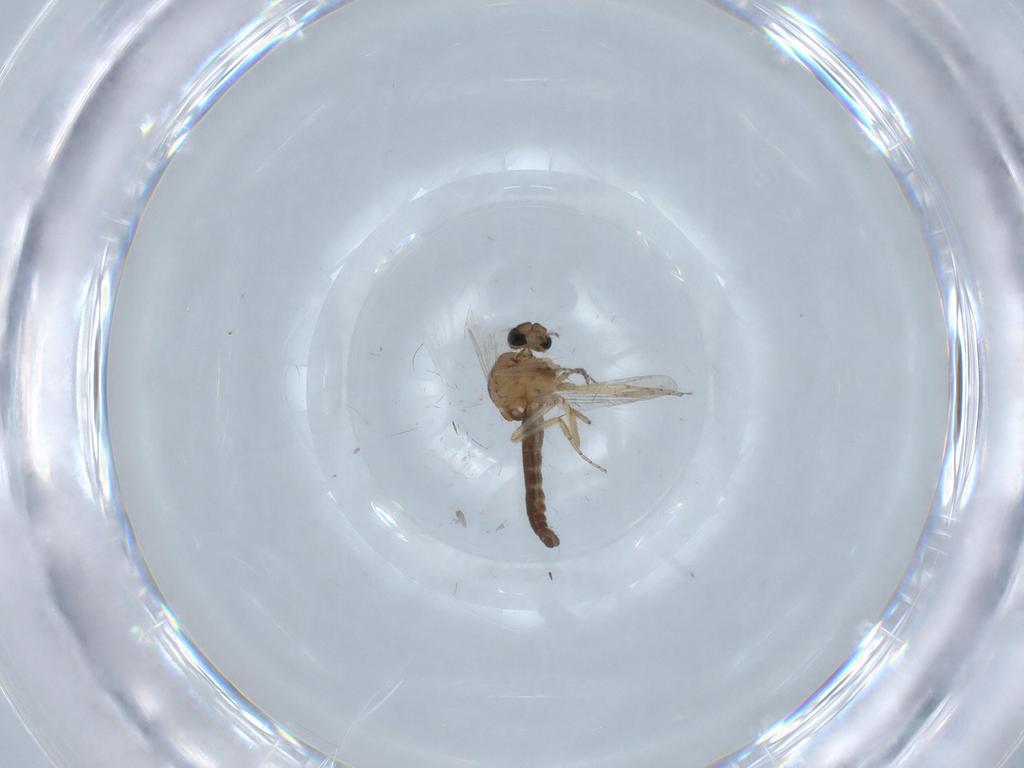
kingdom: Animalia
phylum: Arthropoda
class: Insecta
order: Diptera
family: Ceratopogonidae
